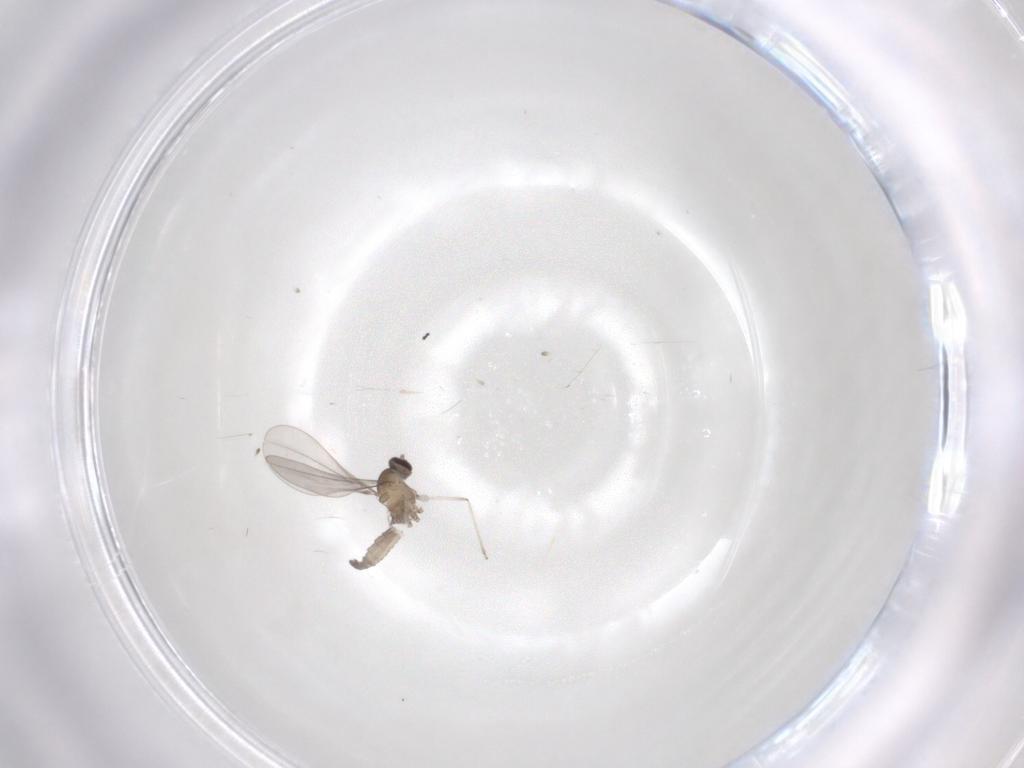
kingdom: Animalia
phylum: Arthropoda
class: Insecta
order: Diptera
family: Cecidomyiidae
